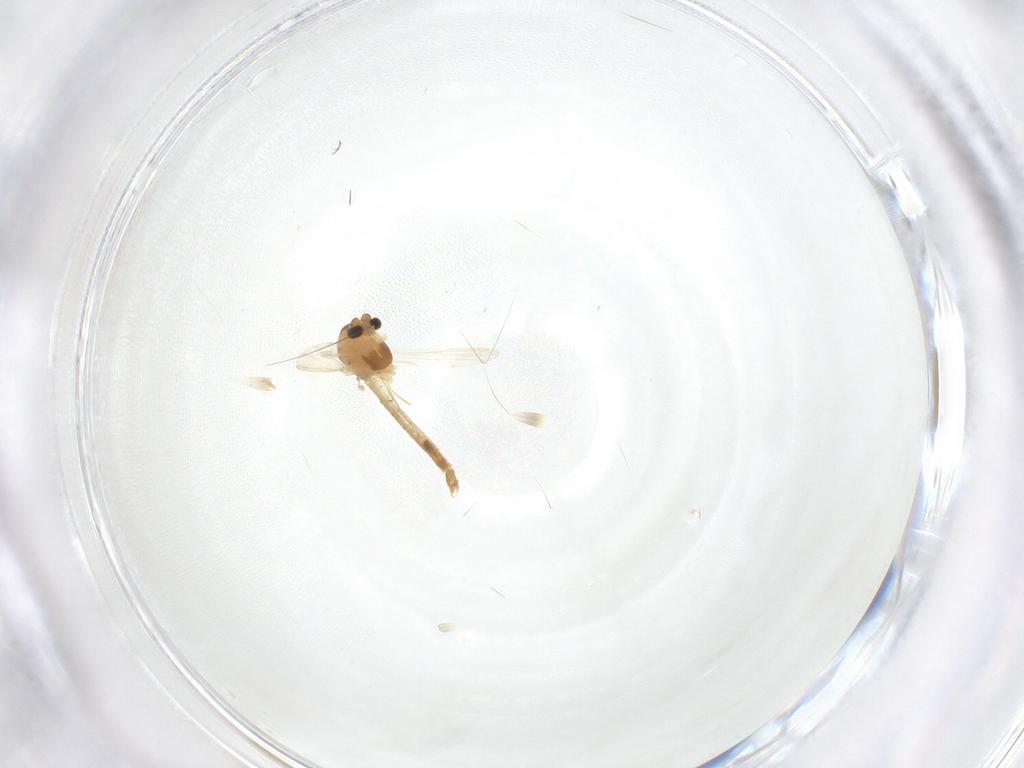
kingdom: Animalia
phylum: Arthropoda
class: Insecta
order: Diptera
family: Chironomidae
